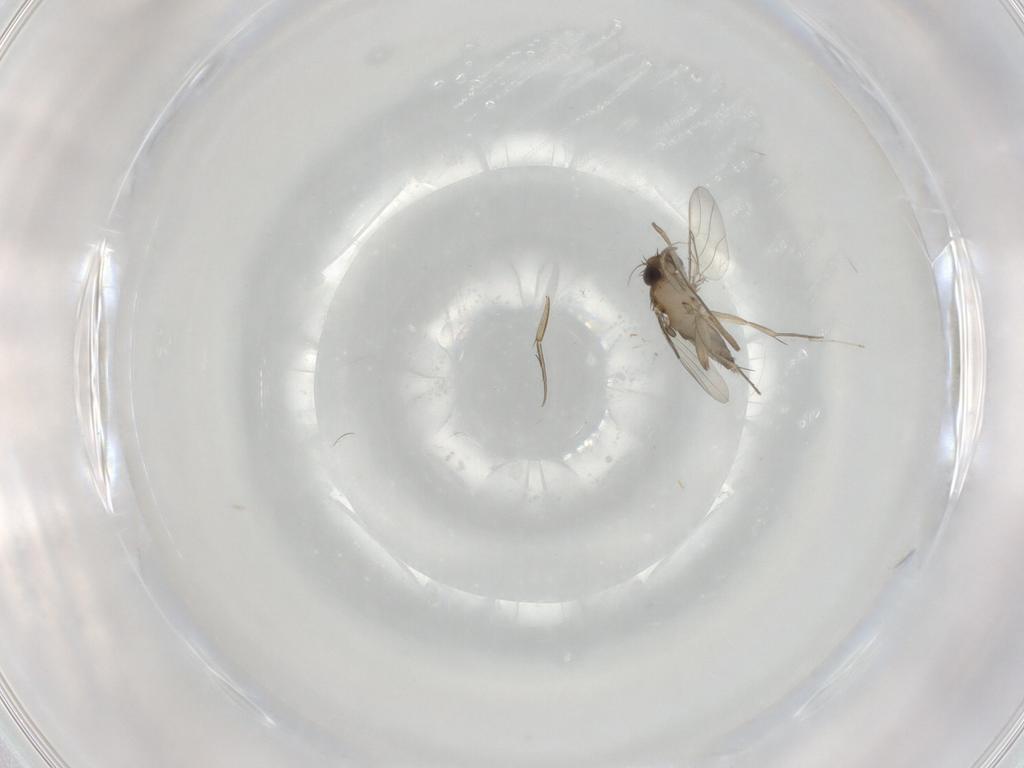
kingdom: Animalia
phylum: Arthropoda
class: Insecta
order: Diptera
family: Phoridae
